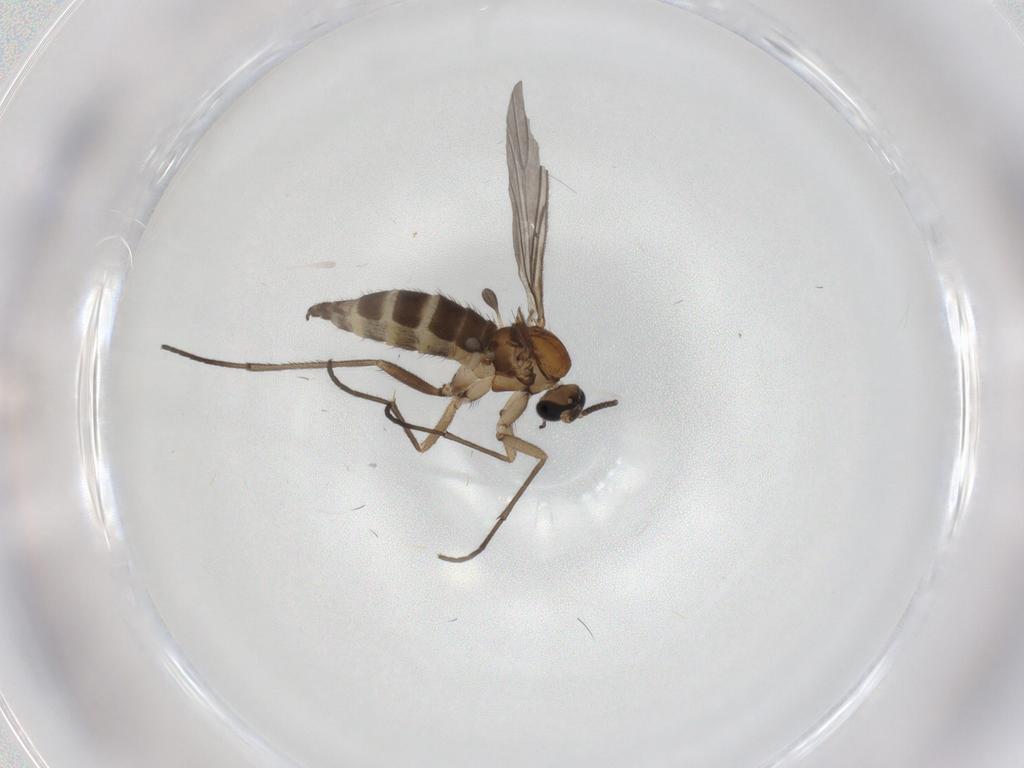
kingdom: Animalia
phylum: Arthropoda
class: Insecta
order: Diptera
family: Sciaridae
